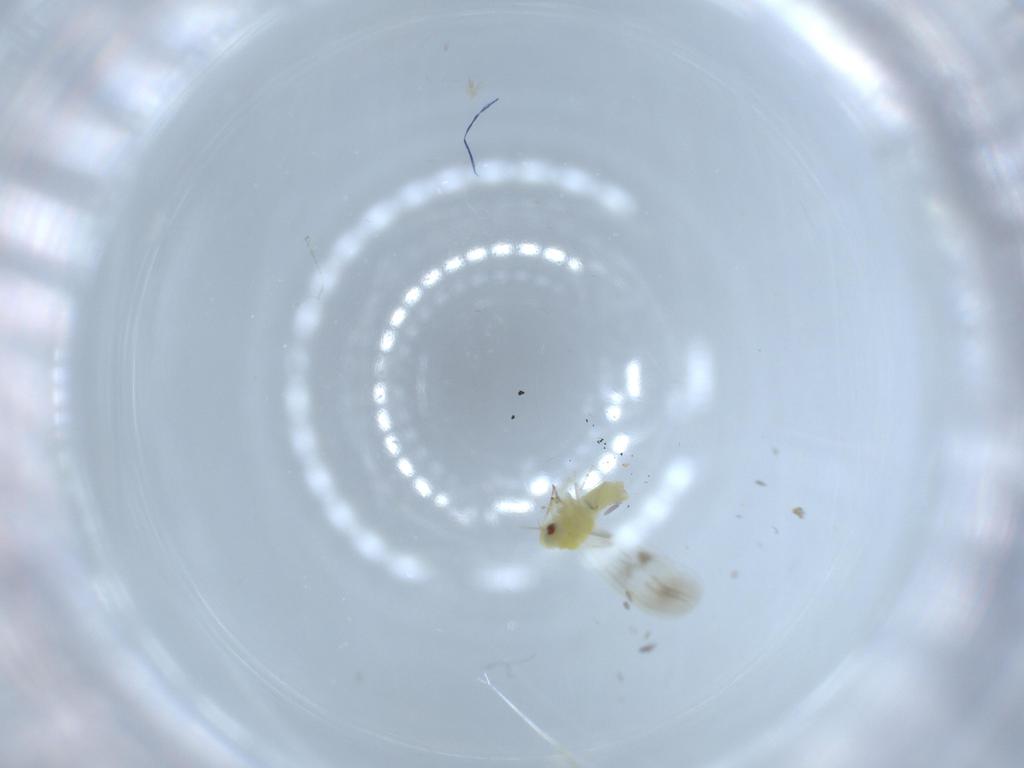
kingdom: Animalia
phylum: Arthropoda
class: Insecta
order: Hemiptera
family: Aleyrodidae
